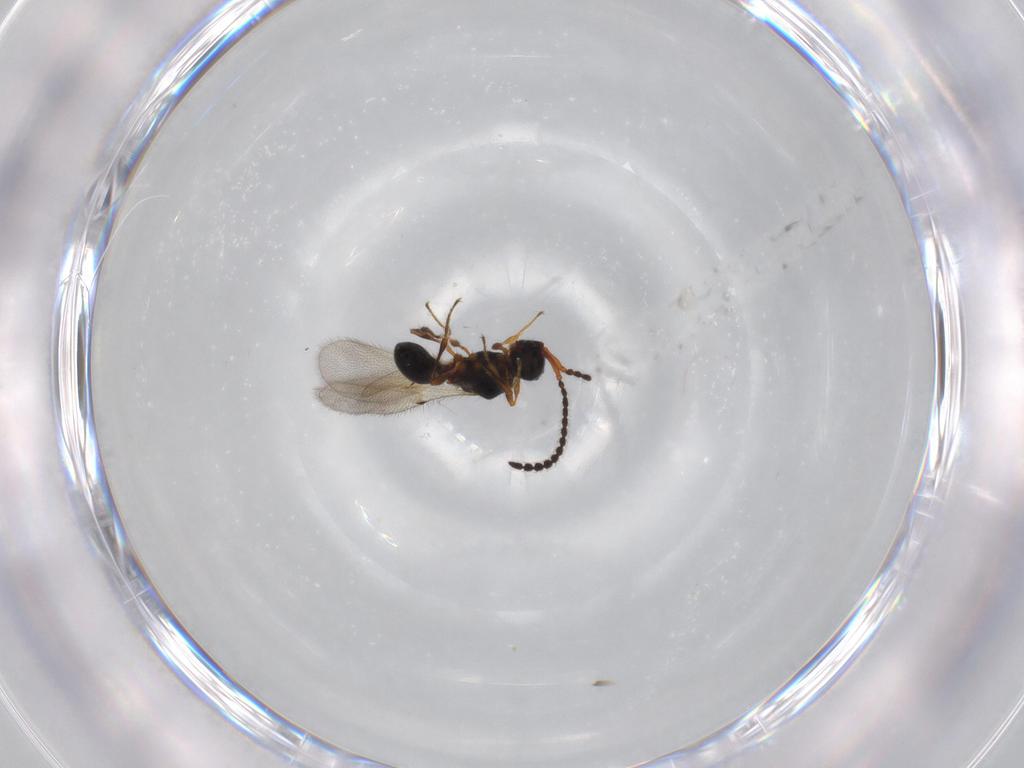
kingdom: Animalia
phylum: Arthropoda
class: Insecta
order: Hymenoptera
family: Diapriidae
